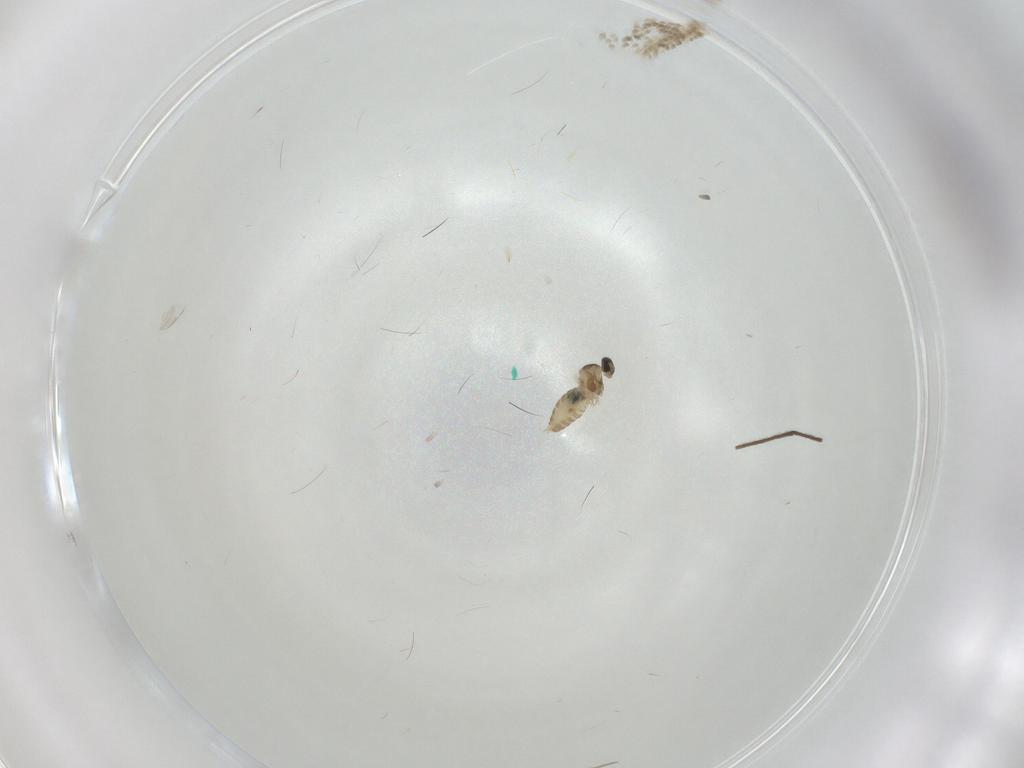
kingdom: Animalia
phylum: Arthropoda
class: Insecta
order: Diptera
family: Cecidomyiidae
